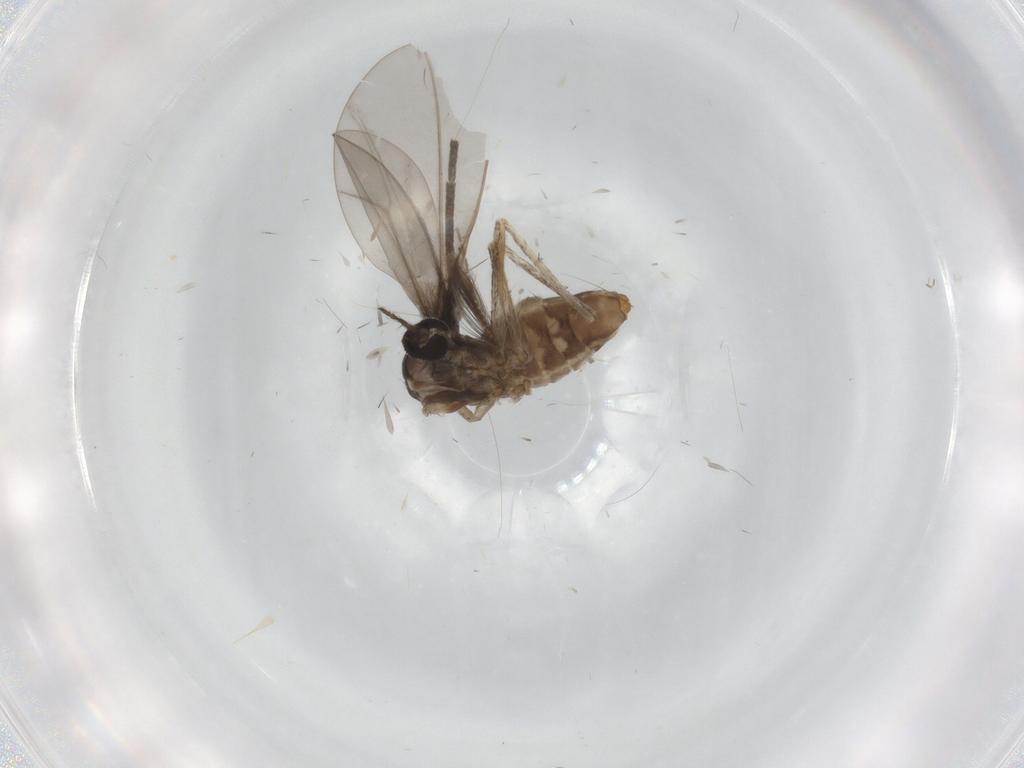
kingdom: Animalia
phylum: Arthropoda
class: Insecta
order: Diptera
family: Cecidomyiidae
